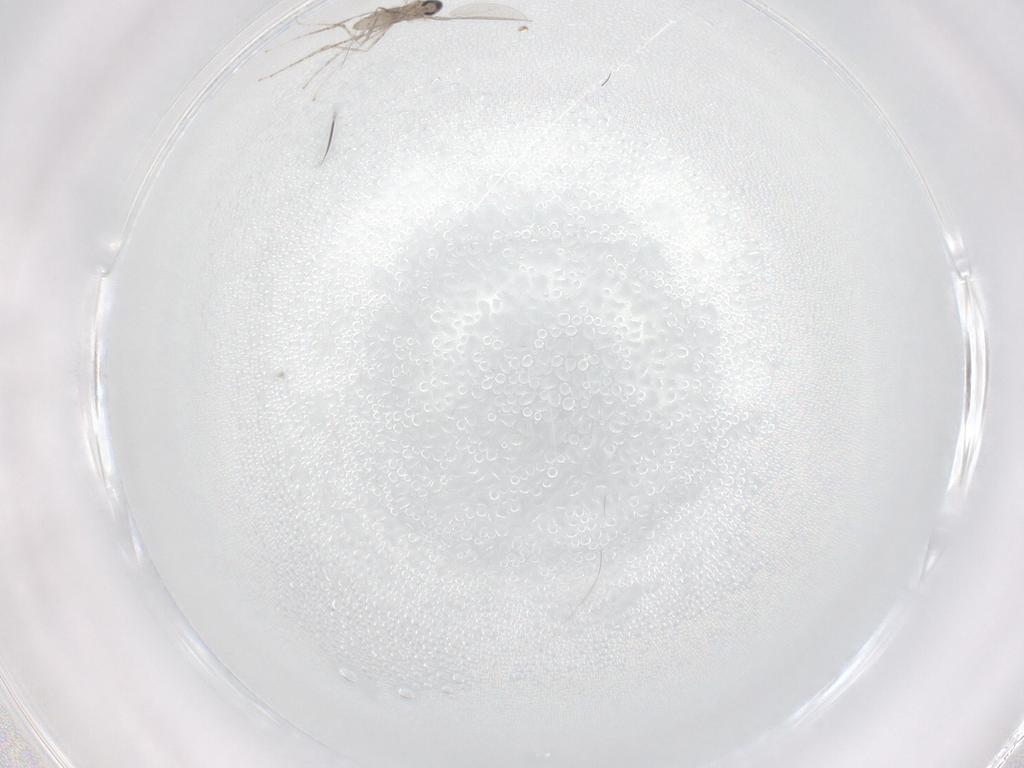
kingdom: Animalia
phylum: Arthropoda
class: Insecta
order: Diptera
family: Cecidomyiidae
